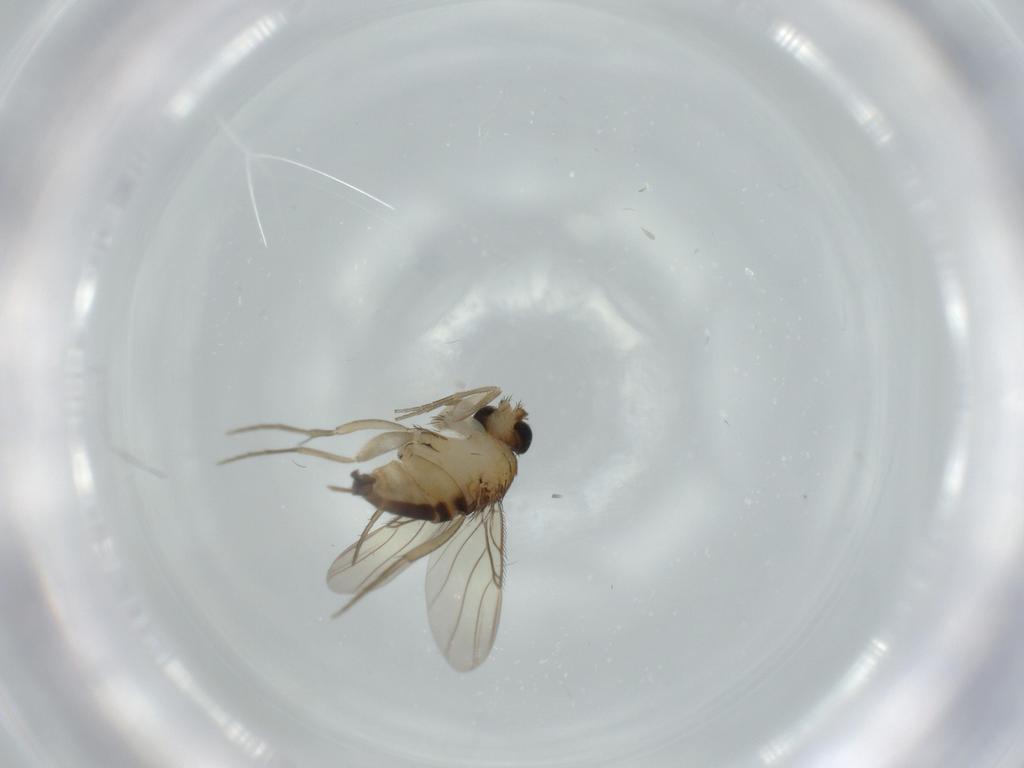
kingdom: Animalia
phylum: Arthropoda
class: Insecta
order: Diptera
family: Phoridae
